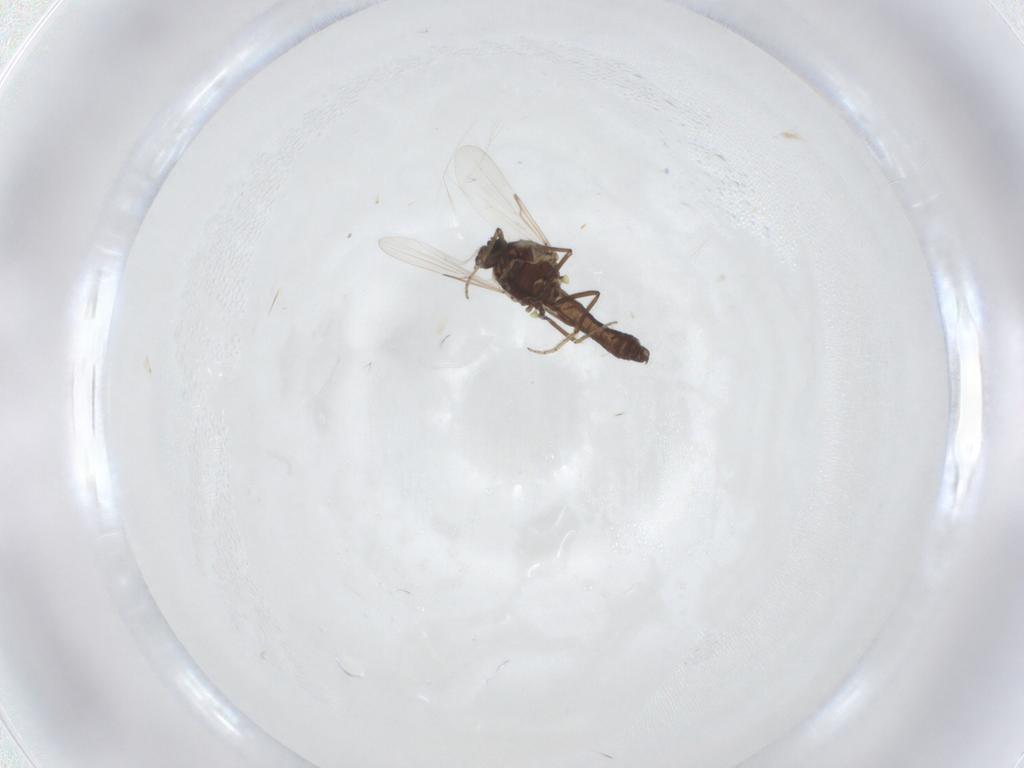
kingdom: Animalia
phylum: Arthropoda
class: Insecta
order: Diptera
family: Ceratopogonidae
